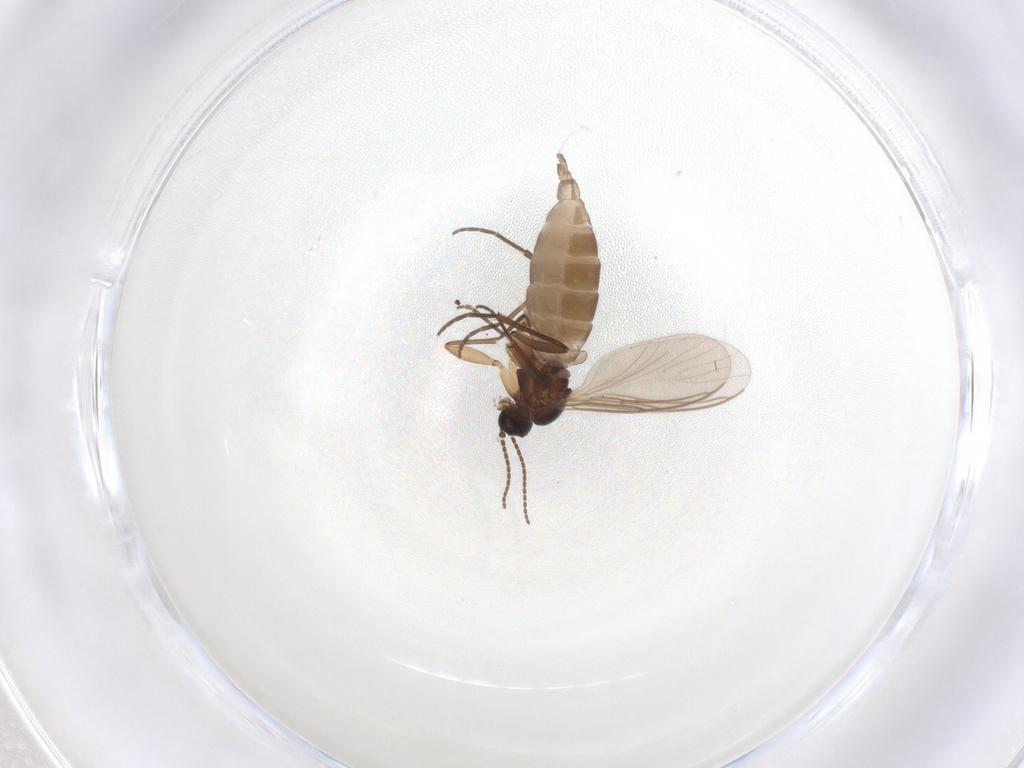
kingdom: Animalia
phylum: Arthropoda
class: Insecta
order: Diptera
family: Sciaridae
